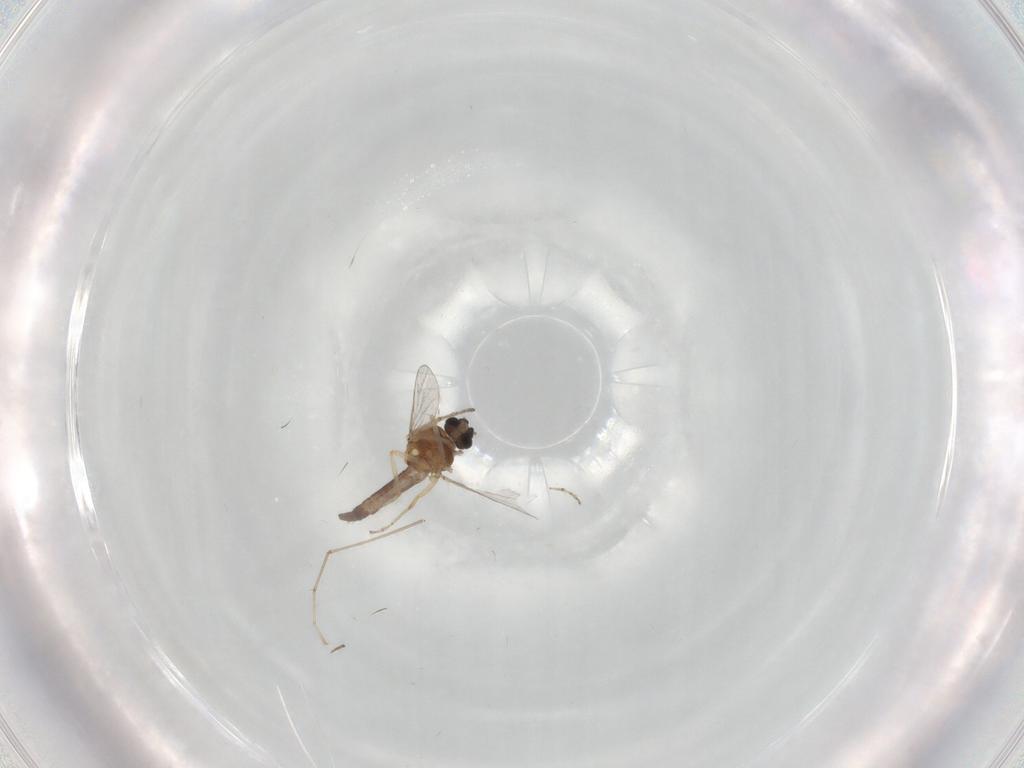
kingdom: Animalia
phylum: Arthropoda
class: Insecta
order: Diptera
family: Ceratopogonidae
